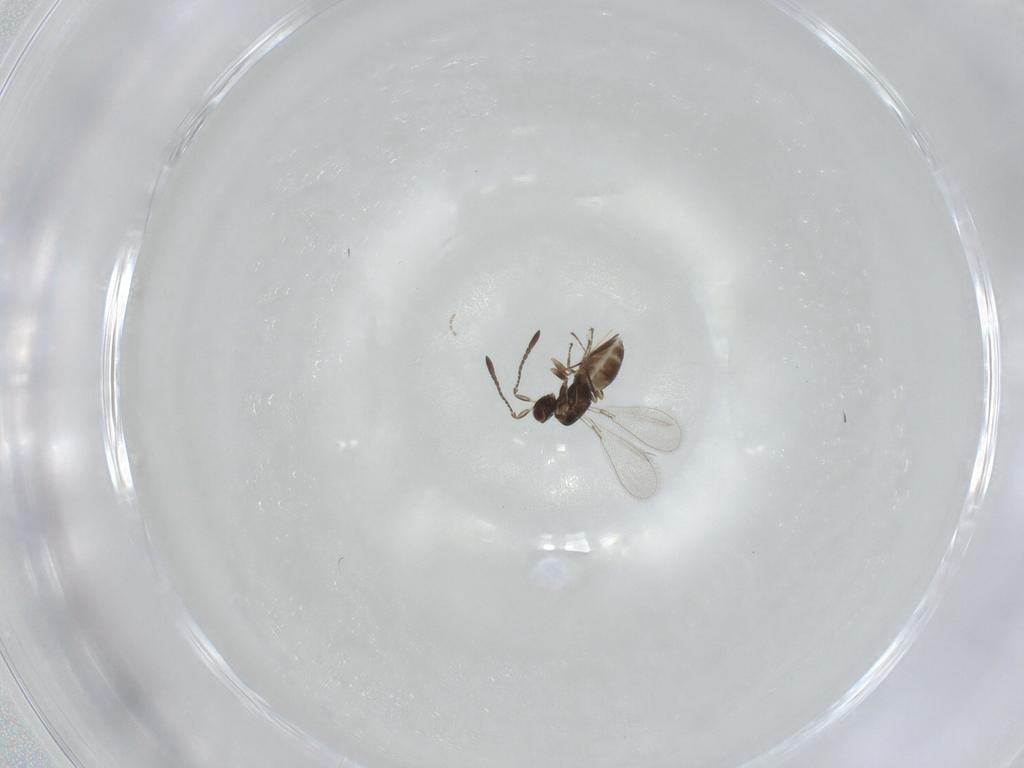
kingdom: Animalia
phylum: Arthropoda
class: Insecta
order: Hymenoptera
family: Mymaridae
